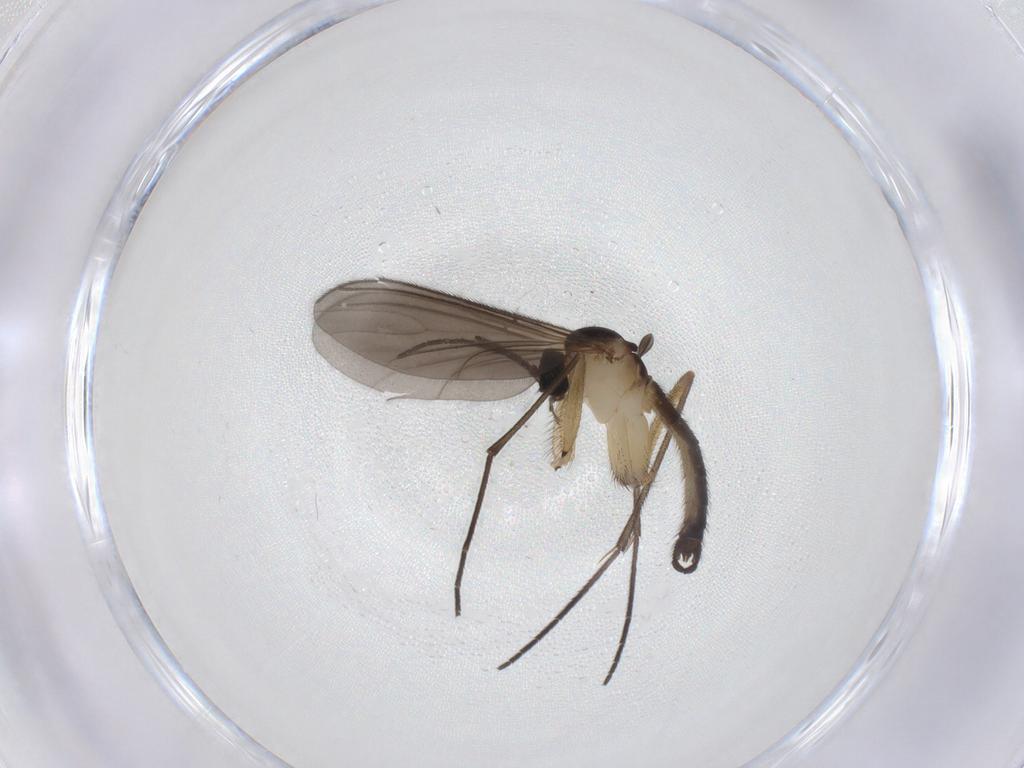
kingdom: Animalia
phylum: Arthropoda
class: Insecta
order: Diptera
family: Sciaridae
